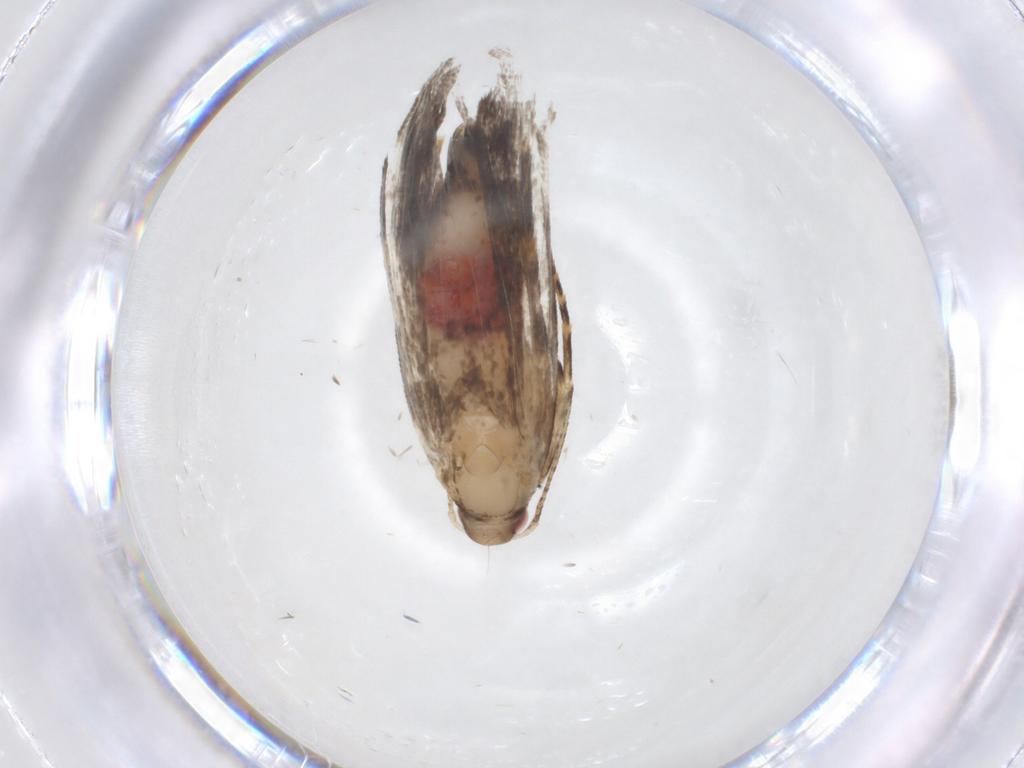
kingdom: Animalia
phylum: Arthropoda
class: Insecta
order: Lepidoptera
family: Gelechiidae
